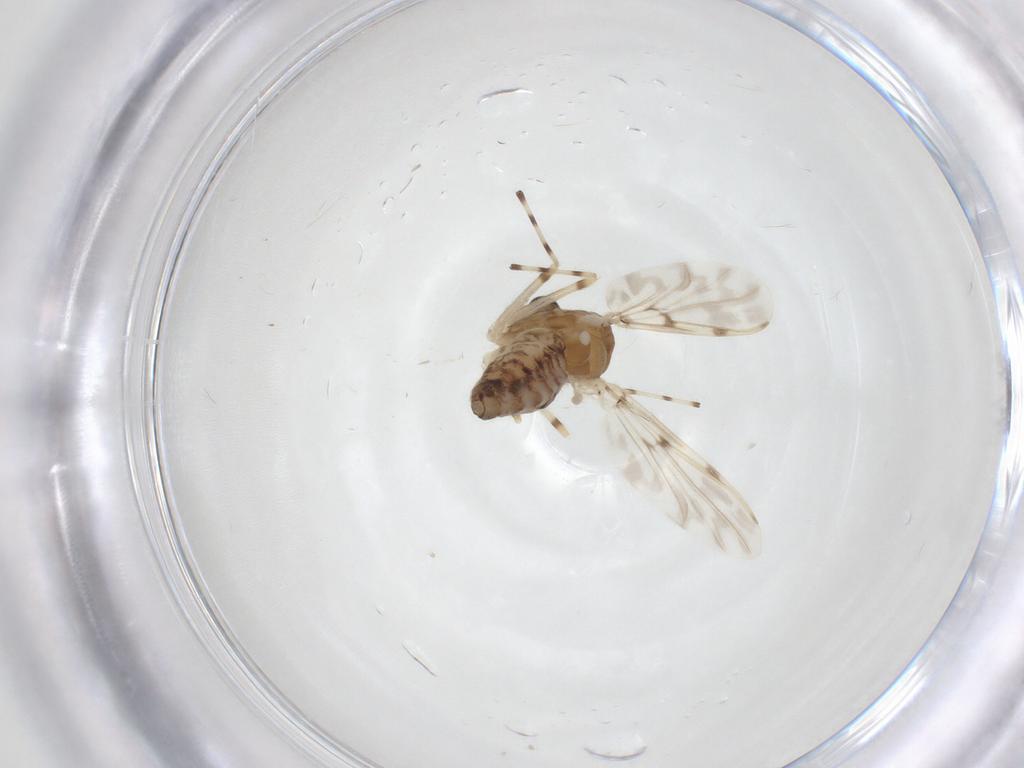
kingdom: Animalia
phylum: Arthropoda
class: Insecta
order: Diptera
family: Chironomidae
